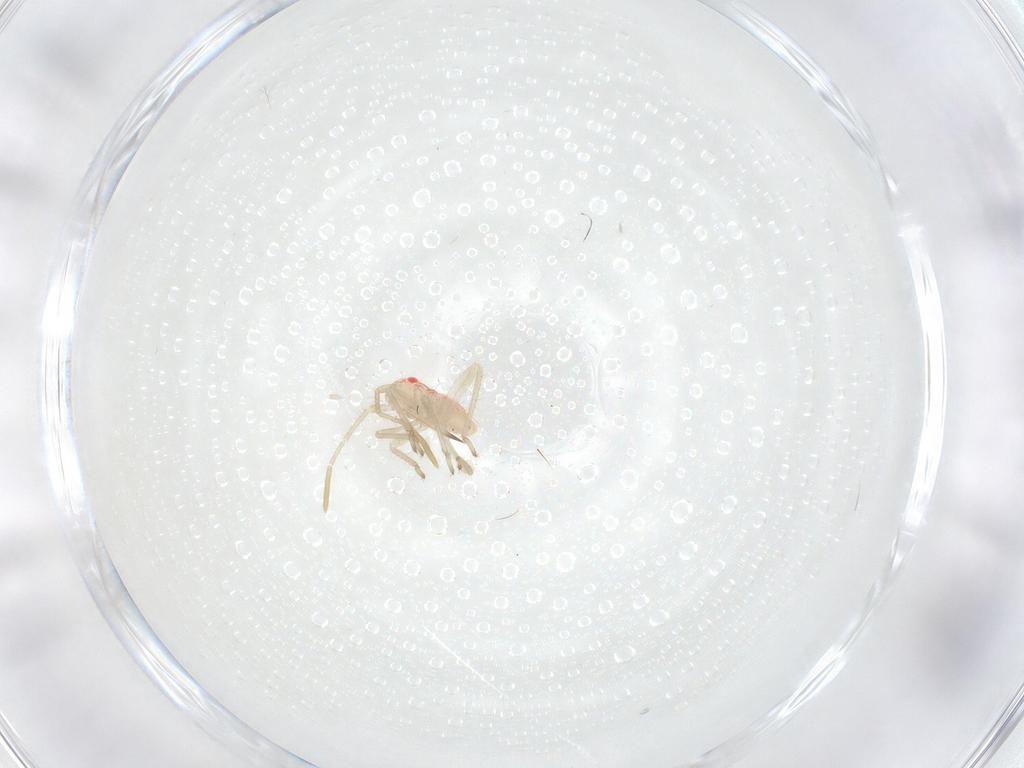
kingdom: Animalia
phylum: Arthropoda
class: Insecta
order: Hemiptera
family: Miridae
